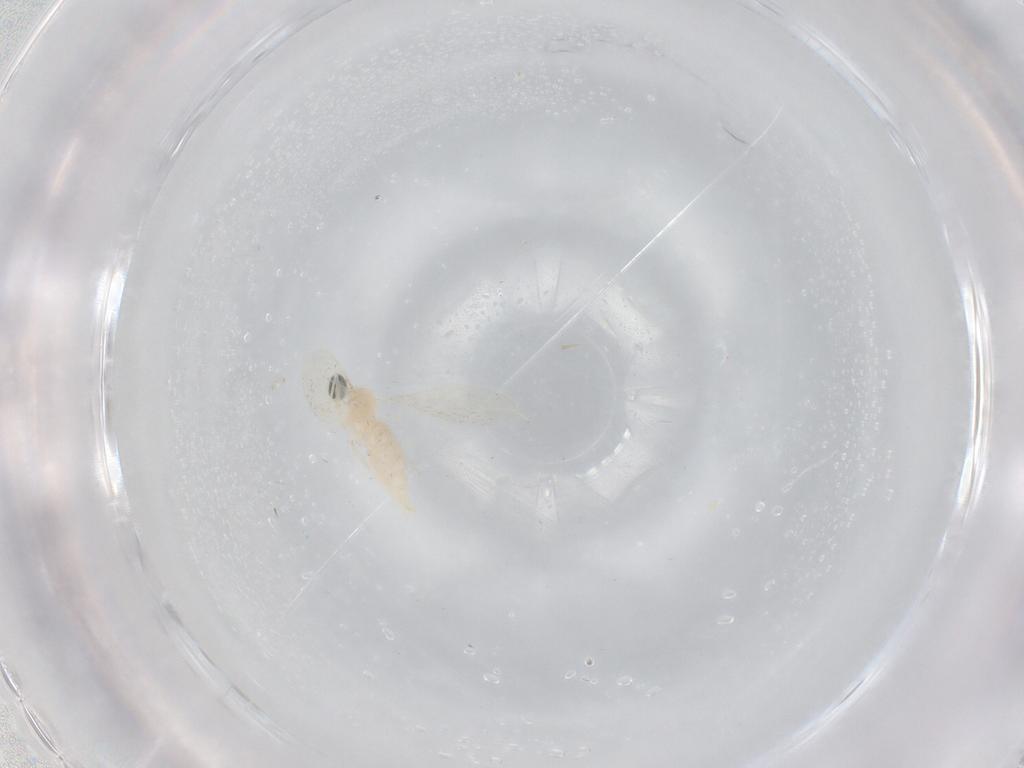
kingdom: Animalia
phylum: Arthropoda
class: Insecta
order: Diptera
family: Cecidomyiidae
